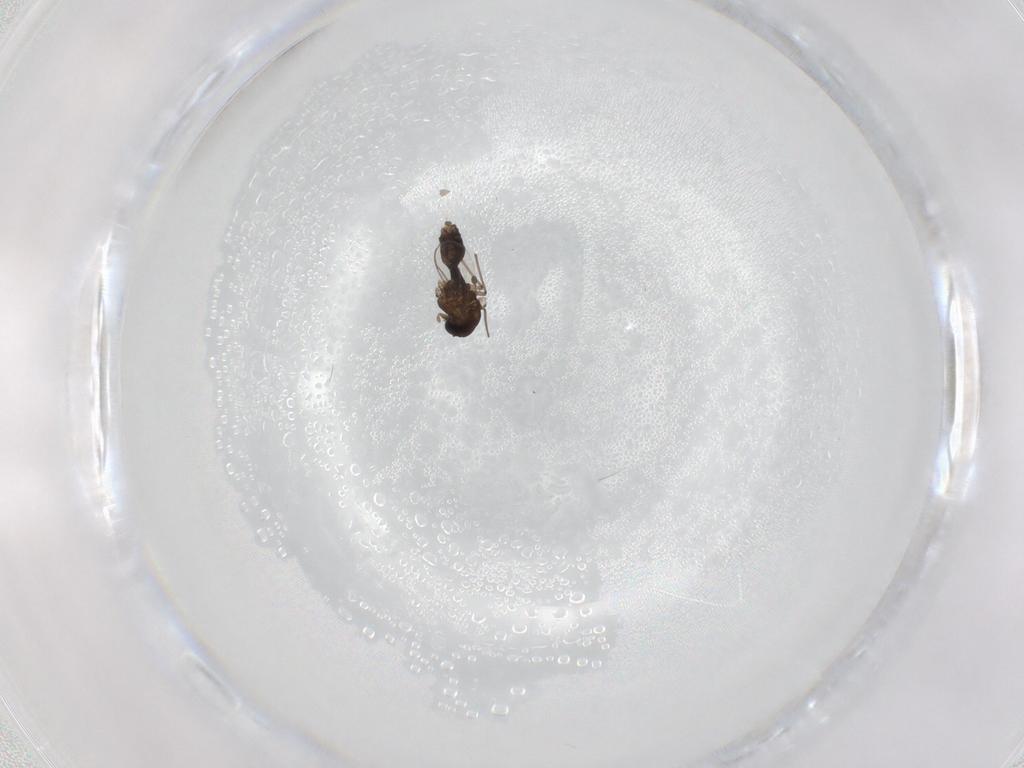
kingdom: Animalia
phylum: Arthropoda
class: Insecta
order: Diptera
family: Chironomidae
